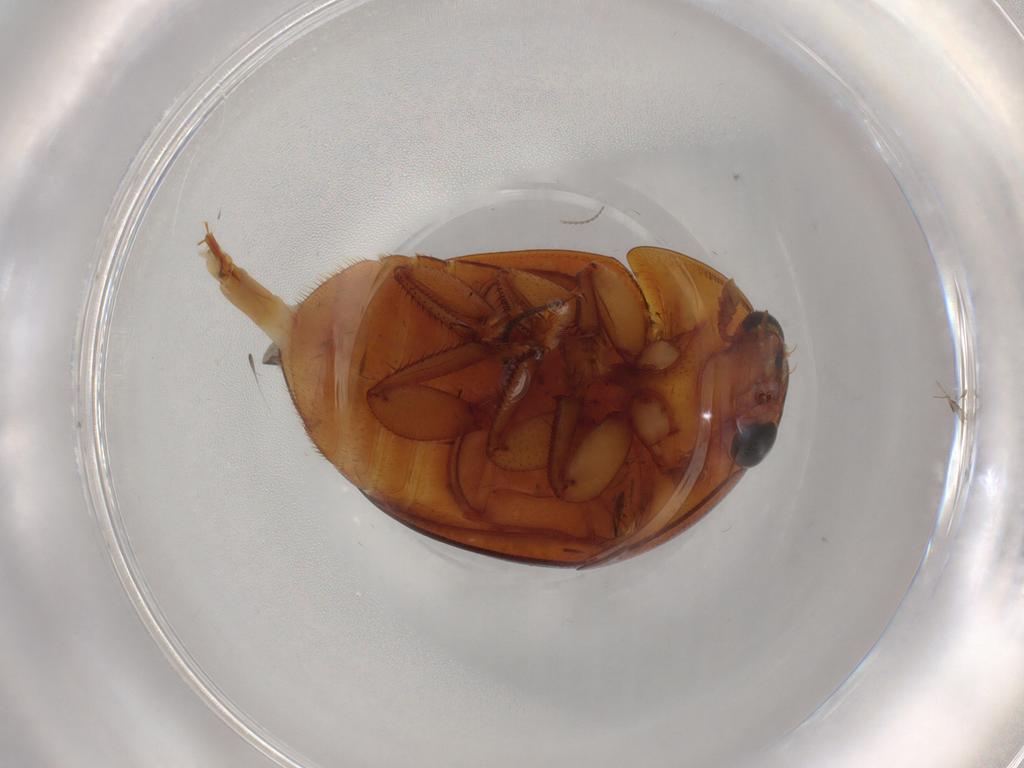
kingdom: Animalia
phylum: Arthropoda
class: Insecta
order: Coleoptera
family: Nitidulidae
